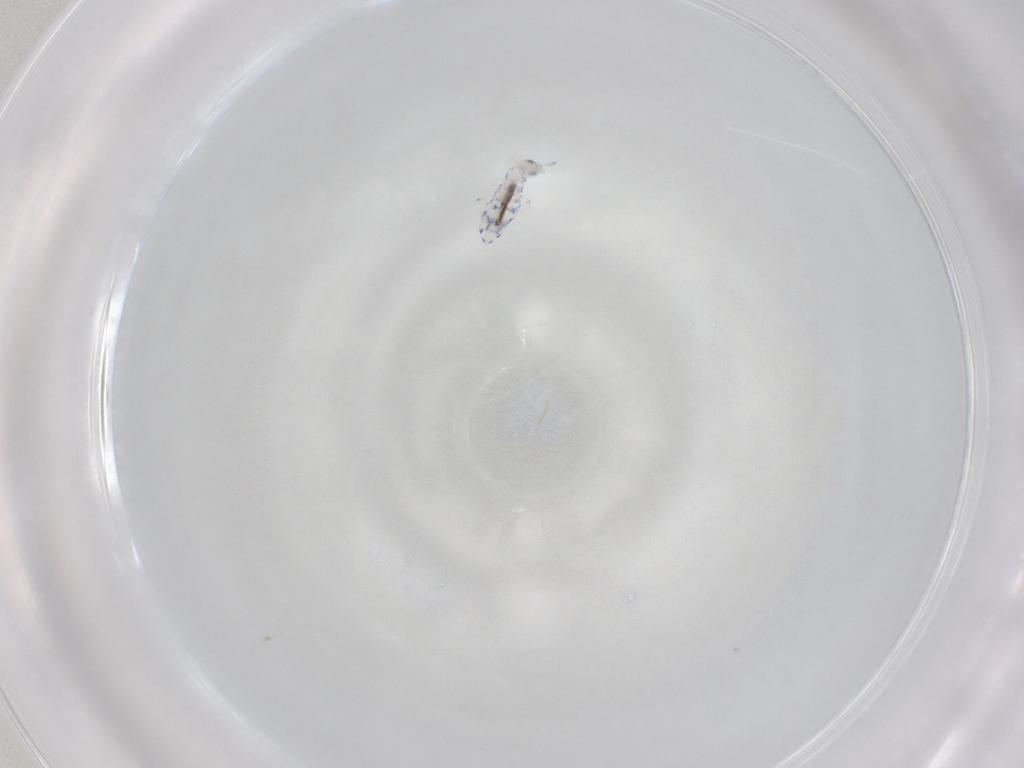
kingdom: Animalia
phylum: Arthropoda
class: Collembola
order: Entomobryomorpha
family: Entomobryidae
